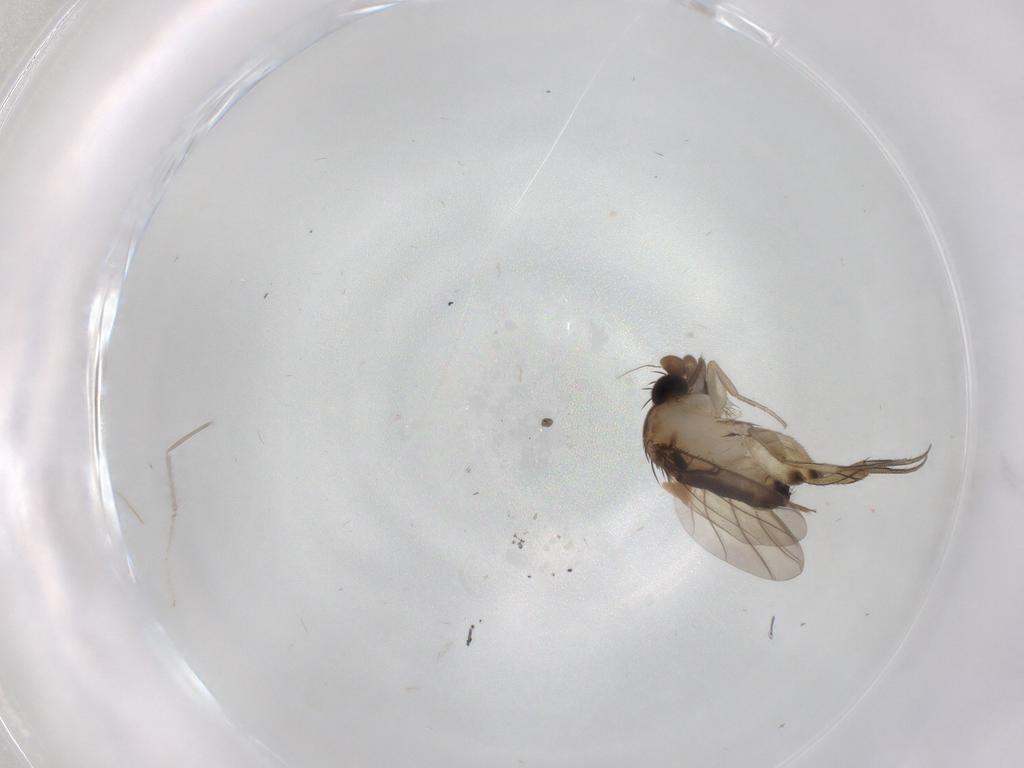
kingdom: Animalia
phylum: Arthropoda
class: Insecta
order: Diptera
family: Phoridae
